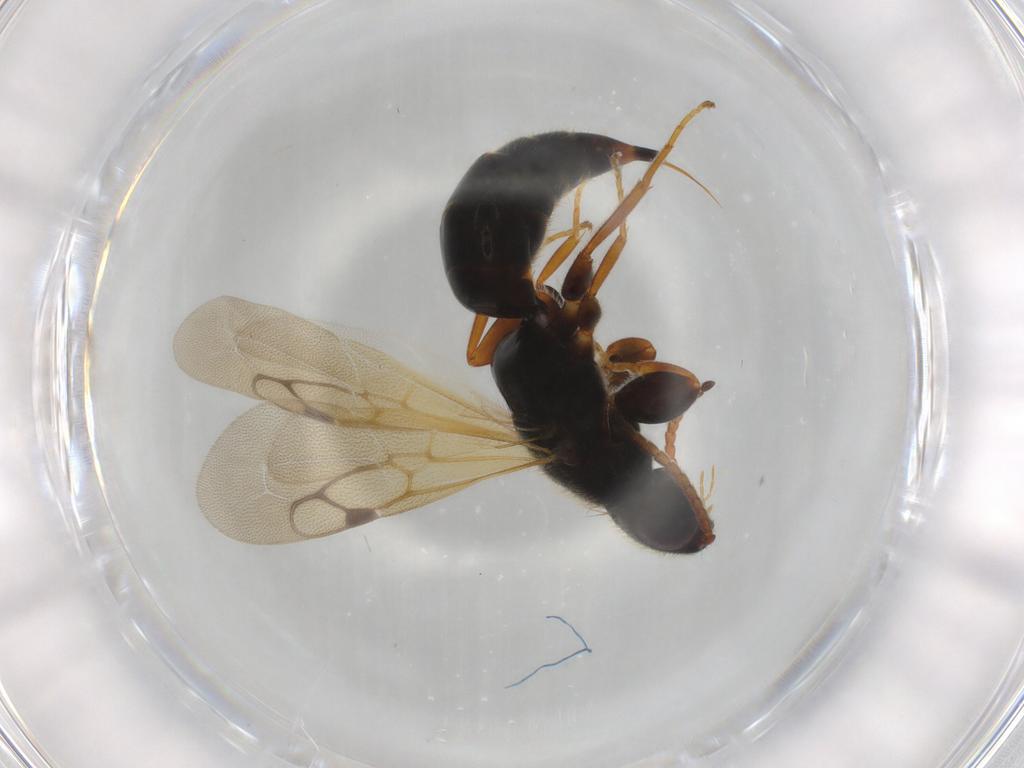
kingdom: Animalia
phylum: Arthropoda
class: Insecta
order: Hymenoptera
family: Bethylidae
